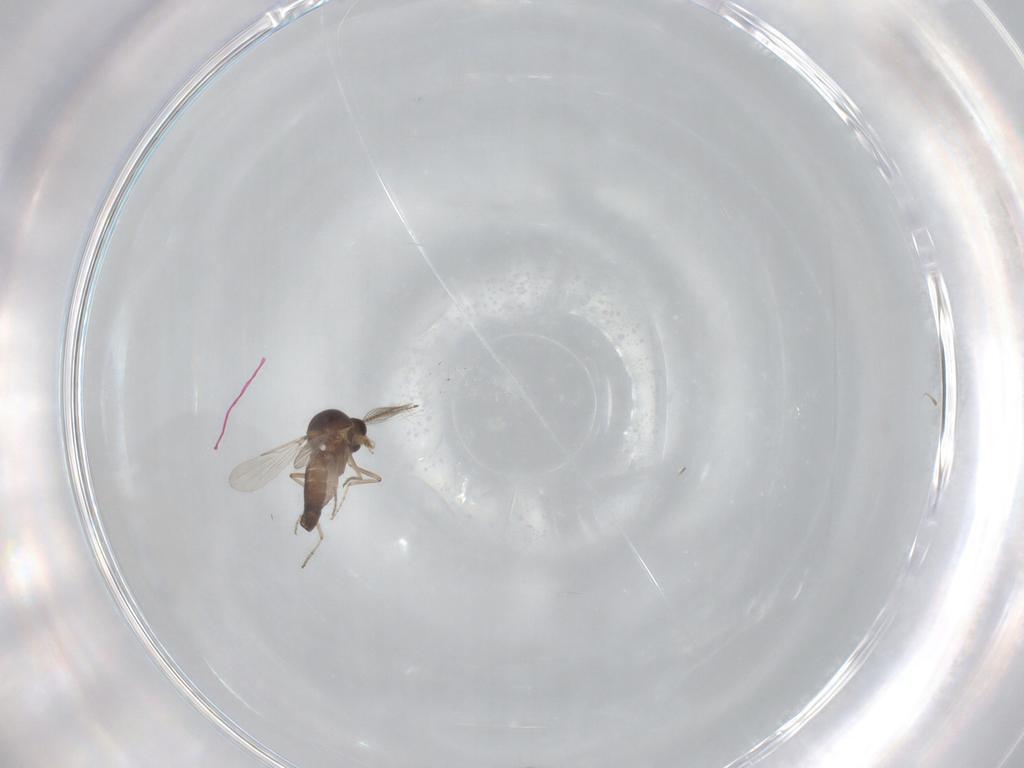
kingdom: Animalia
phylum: Arthropoda
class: Insecta
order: Diptera
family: Ceratopogonidae
